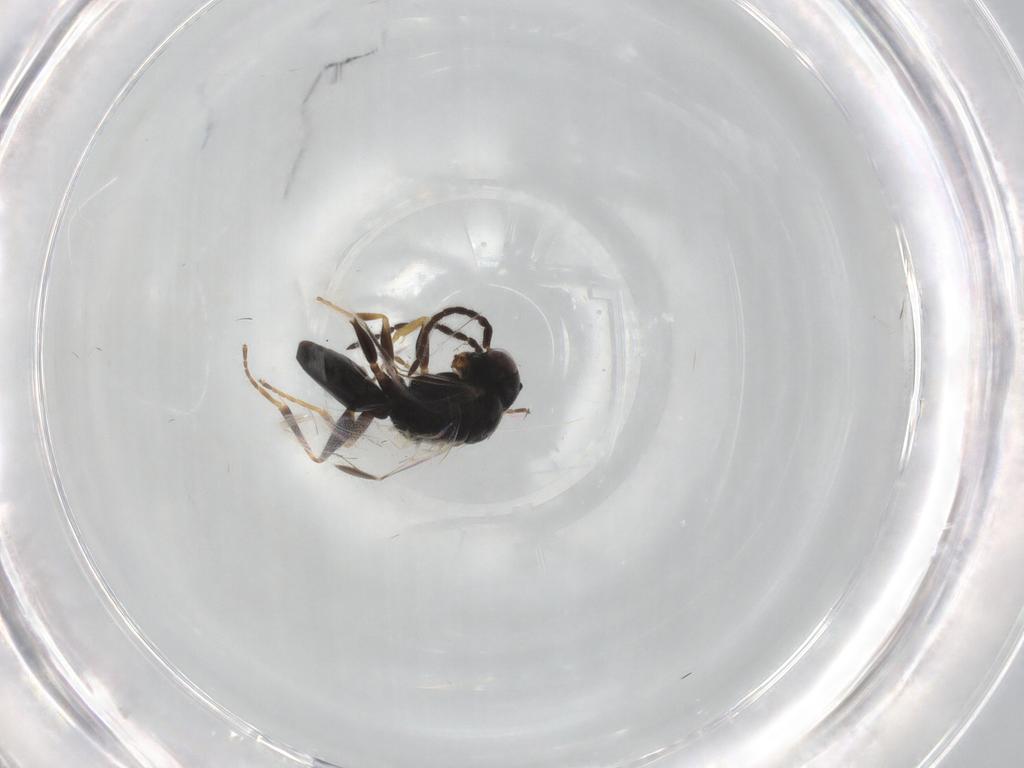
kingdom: Animalia
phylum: Arthropoda
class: Insecta
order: Hymenoptera
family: Dryinidae
